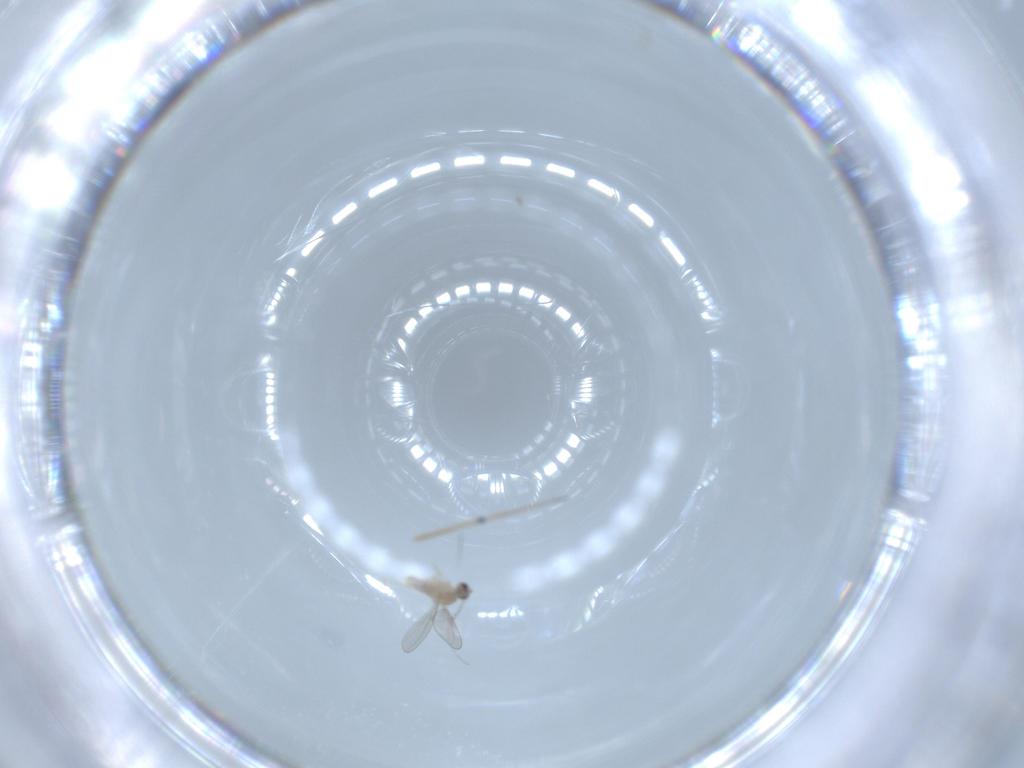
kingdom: Animalia
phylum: Arthropoda
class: Insecta
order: Diptera
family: Ceratopogonidae
